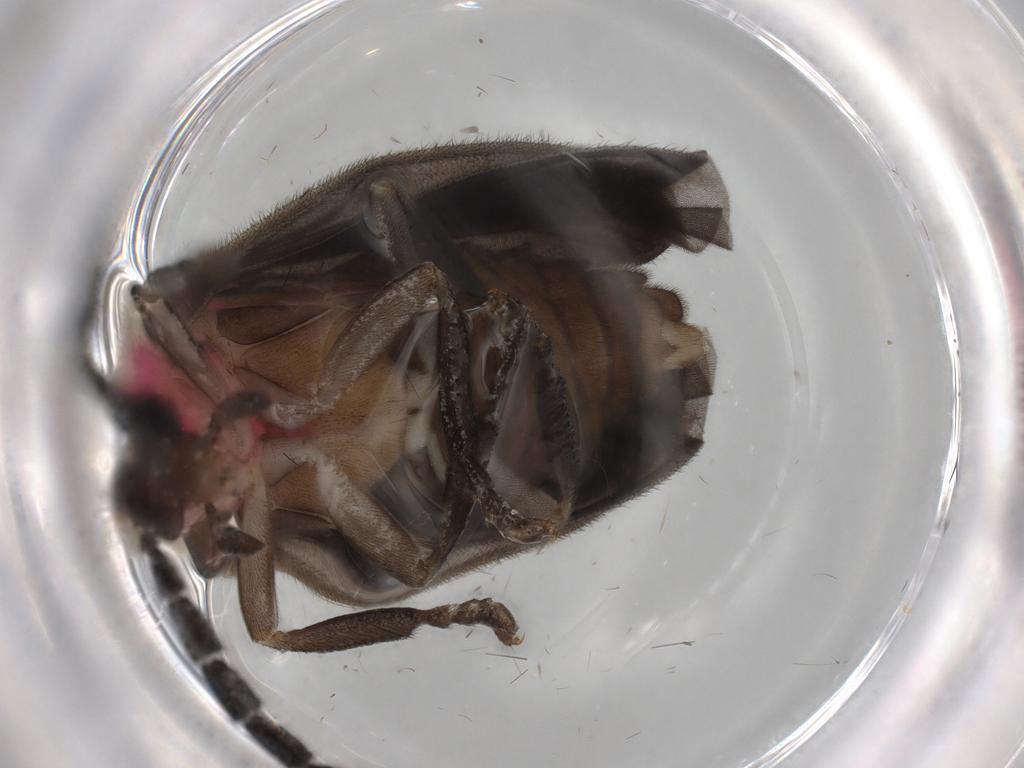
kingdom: Animalia
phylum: Arthropoda
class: Insecta
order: Coleoptera
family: Lampyridae
